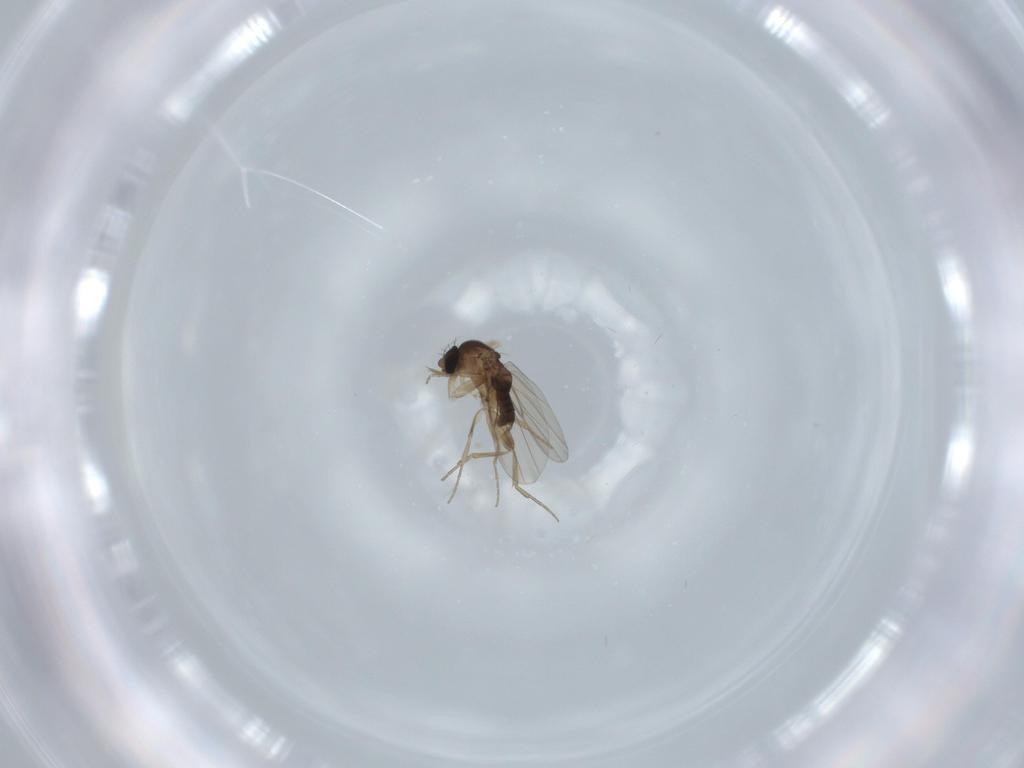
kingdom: Animalia
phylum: Arthropoda
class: Insecta
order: Diptera
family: Phoridae
